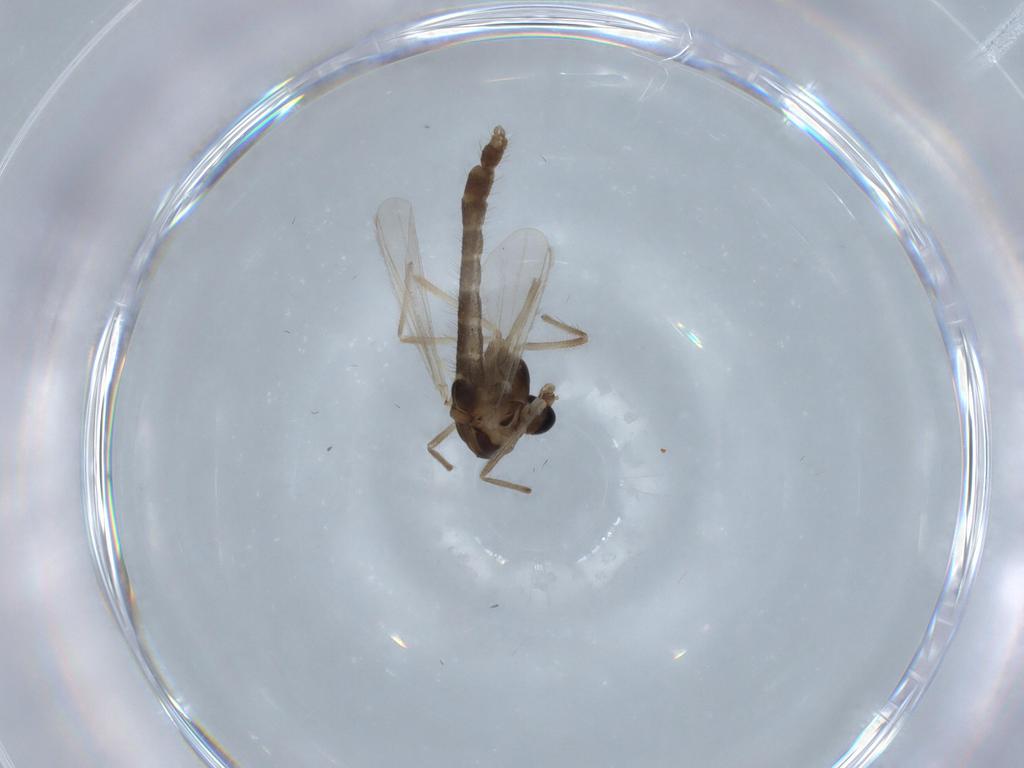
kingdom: Animalia
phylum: Arthropoda
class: Insecta
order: Diptera
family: Chironomidae
